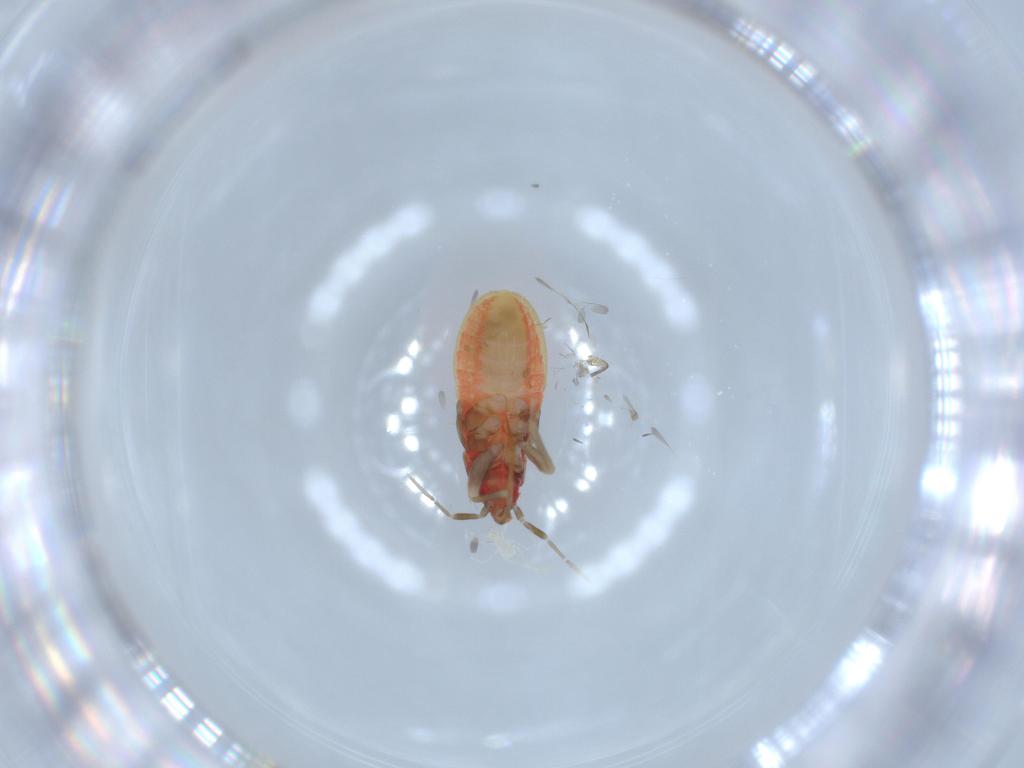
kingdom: Animalia
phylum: Arthropoda
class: Insecta
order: Hemiptera
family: Lasiochilidae
